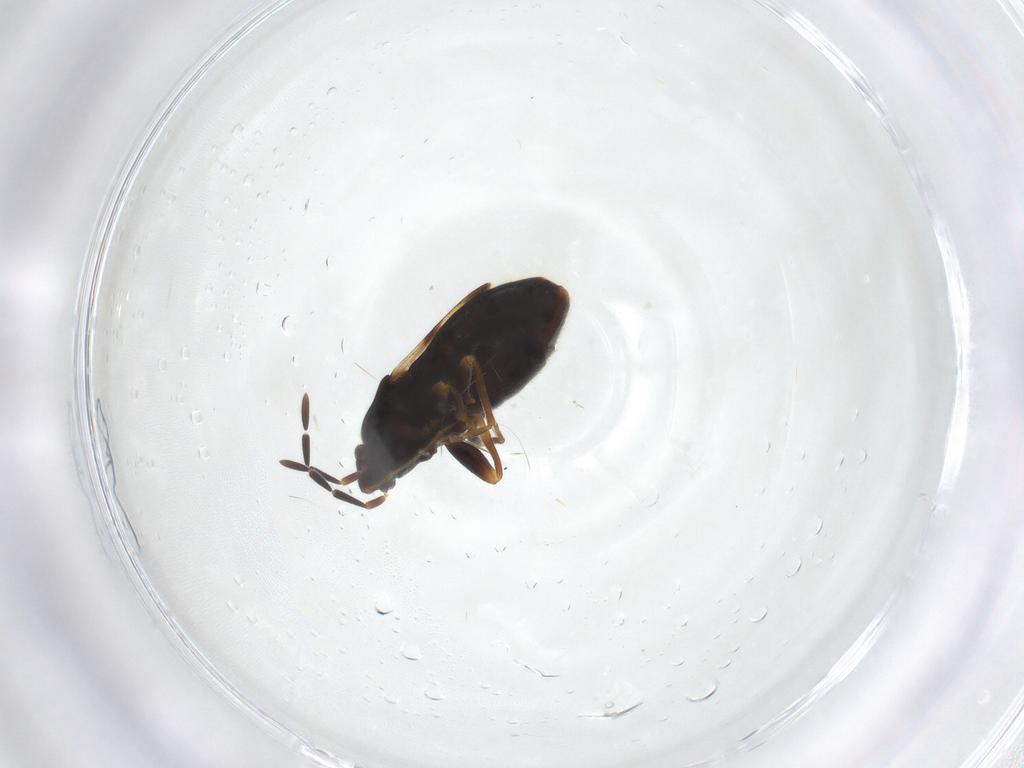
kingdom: Animalia
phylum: Arthropoda
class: Insecta
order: Hemiptera
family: Rhyparochromidae
